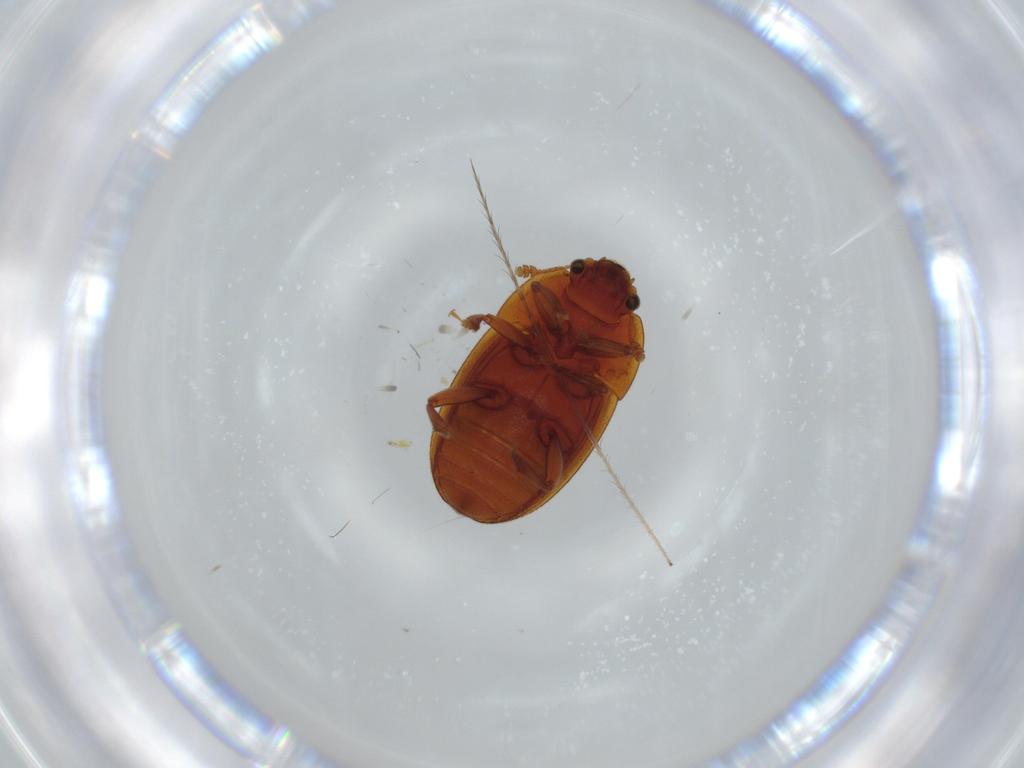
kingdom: Animalia
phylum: Arthropoda
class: Insecta
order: Coleoptera
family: Nitidulidae
